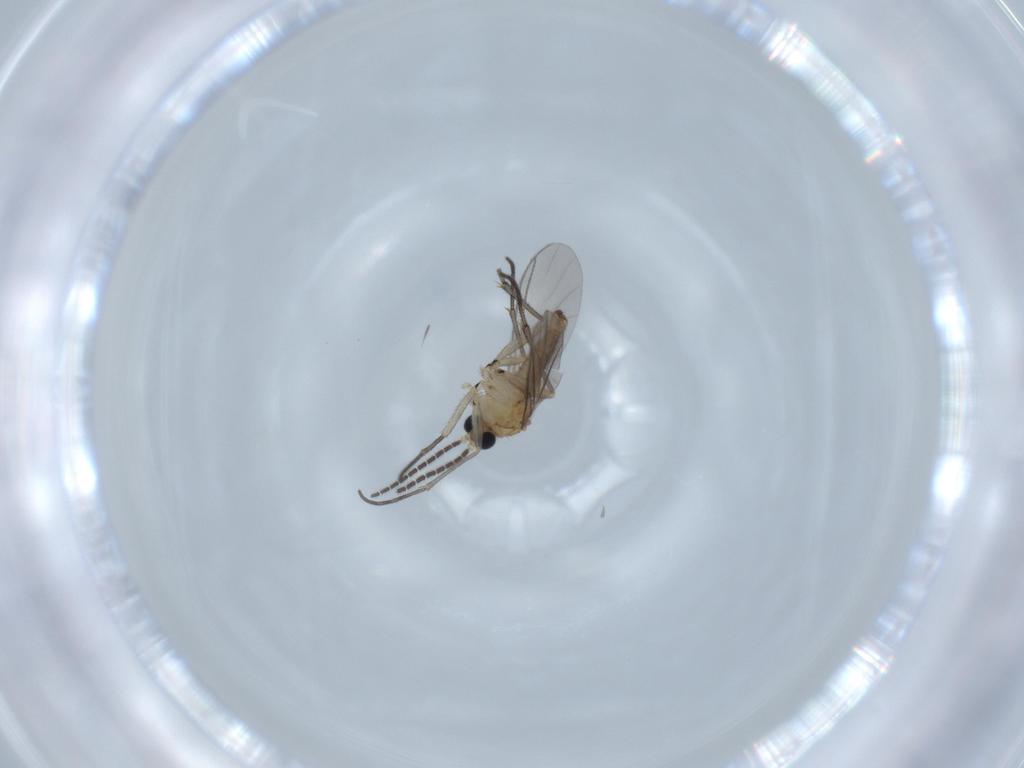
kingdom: Animalia
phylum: Arthropoda
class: Insecta
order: Diptera
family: Sciaridae
